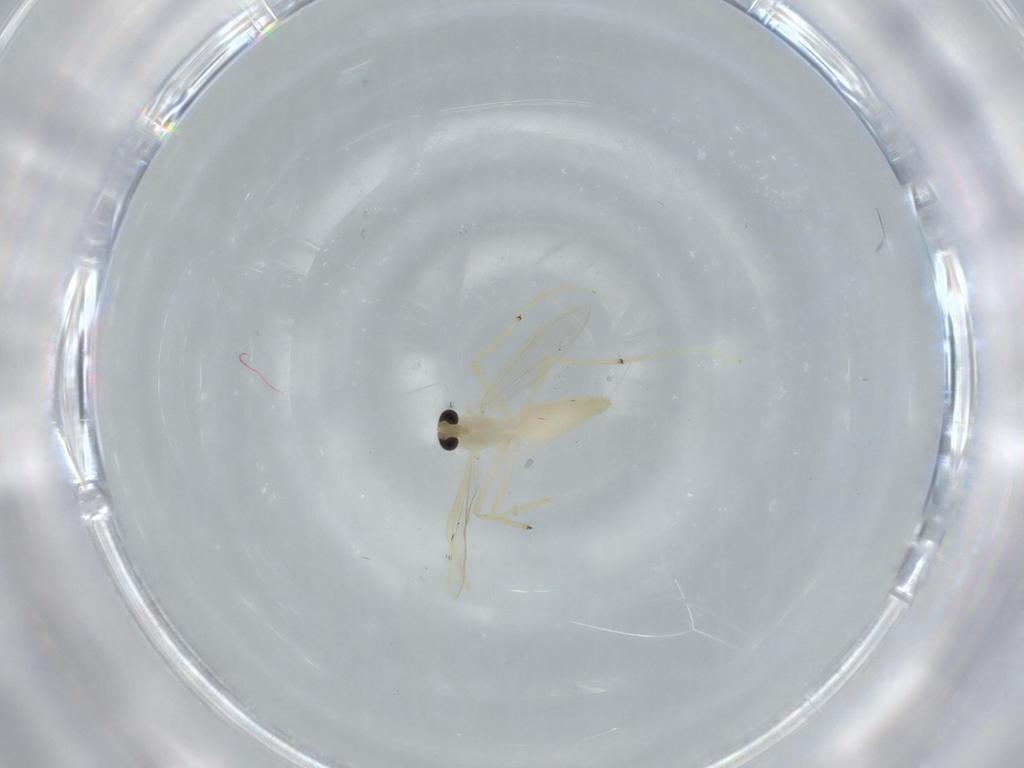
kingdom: Animalia
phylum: Arthropoda
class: Insecta
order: Diptera
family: Chironomidae
